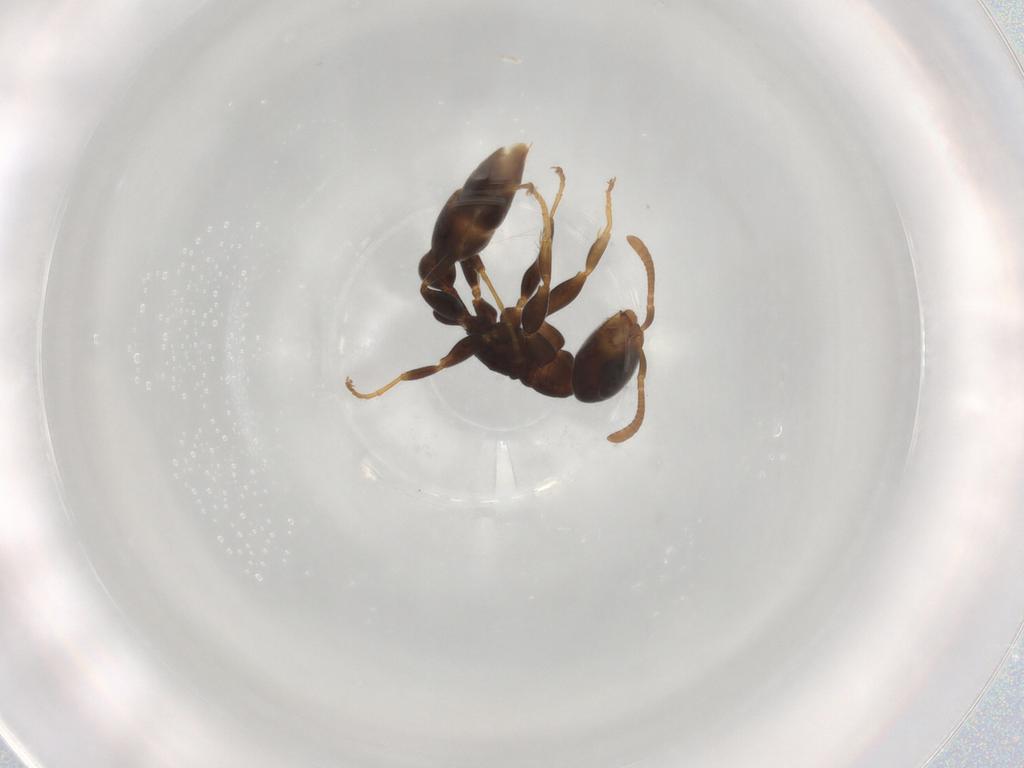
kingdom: Animalia
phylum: Arthropoda
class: Insecta
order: Hymenoptera
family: Formicidae
